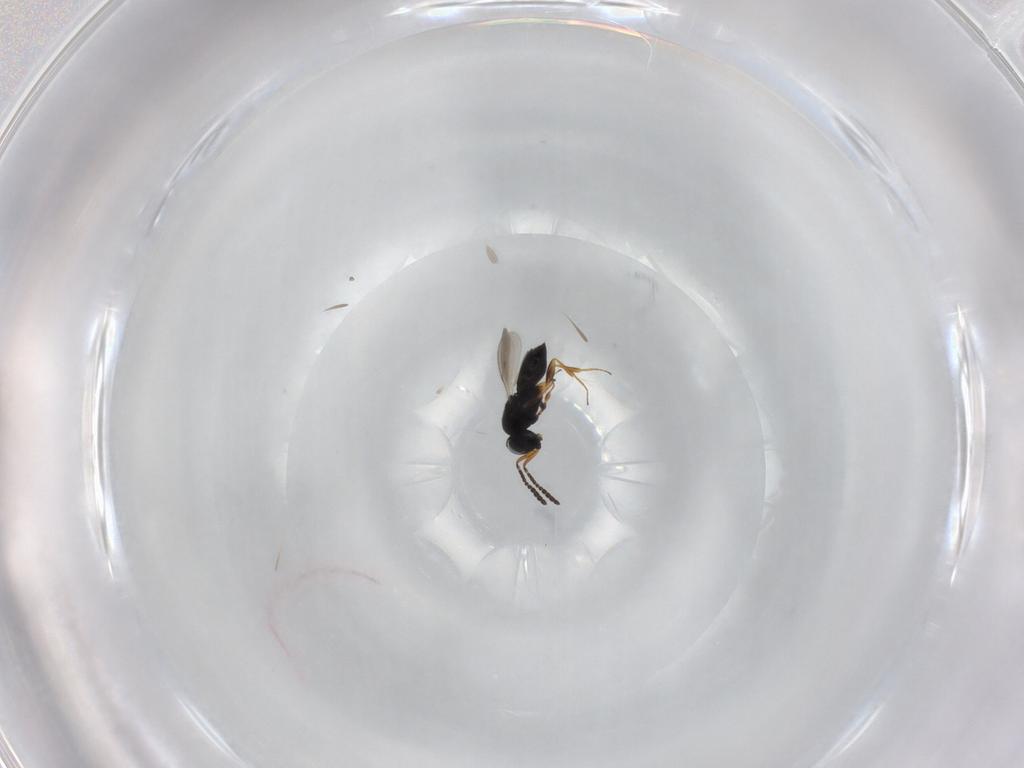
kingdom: Animalia
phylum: Arthropoda
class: Insecta
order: Hymenoptera
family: Scelionidae
